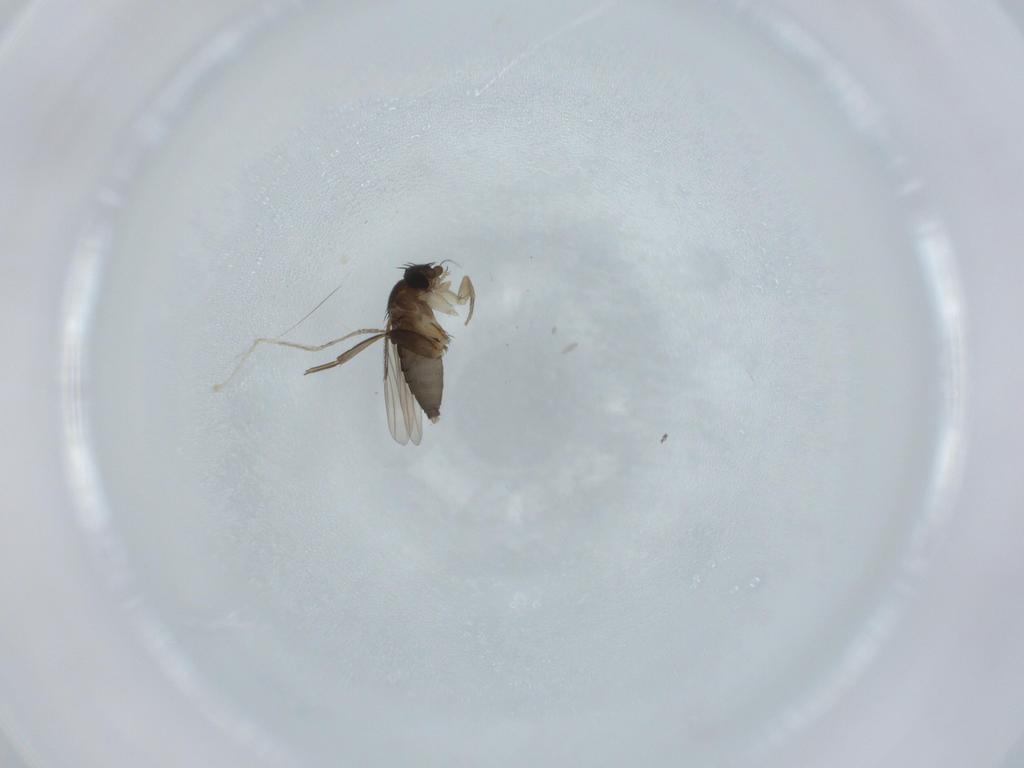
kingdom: Animalia
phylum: Arthropoda
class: Insecta
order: Diptera
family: Phoridae
